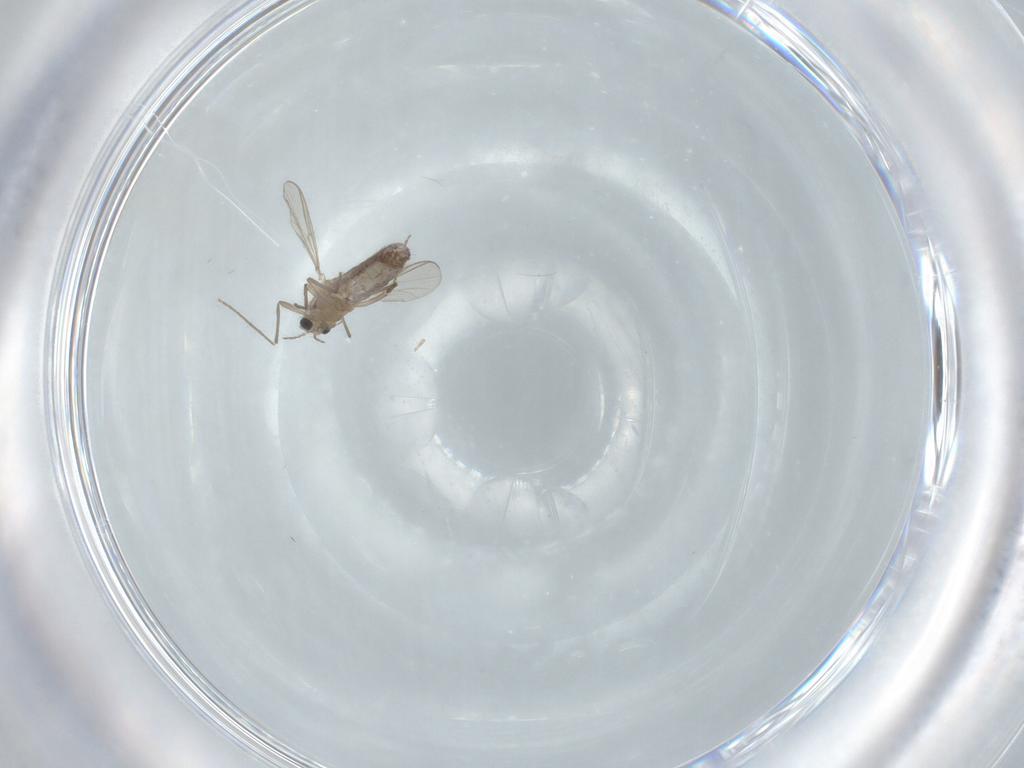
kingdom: Animalia
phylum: Arthropoda
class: Insecta
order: Diptera
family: Chironomidae
